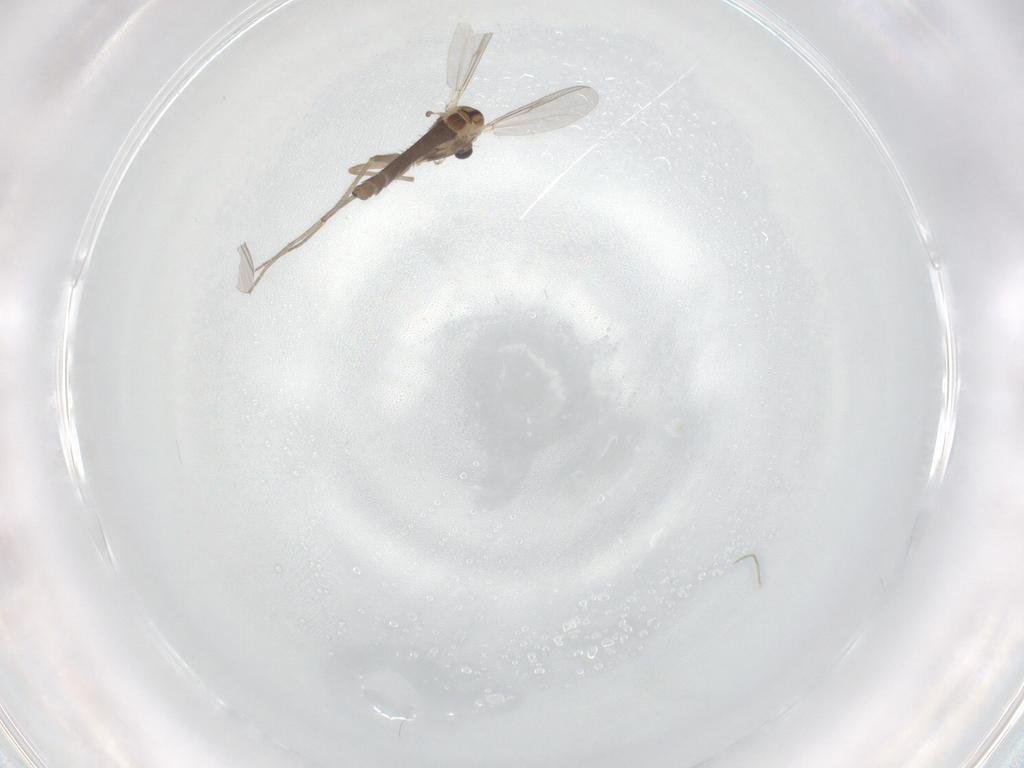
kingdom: Animalia
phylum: Arthropoda
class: Insecta
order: Diptera
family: Chironomidae
